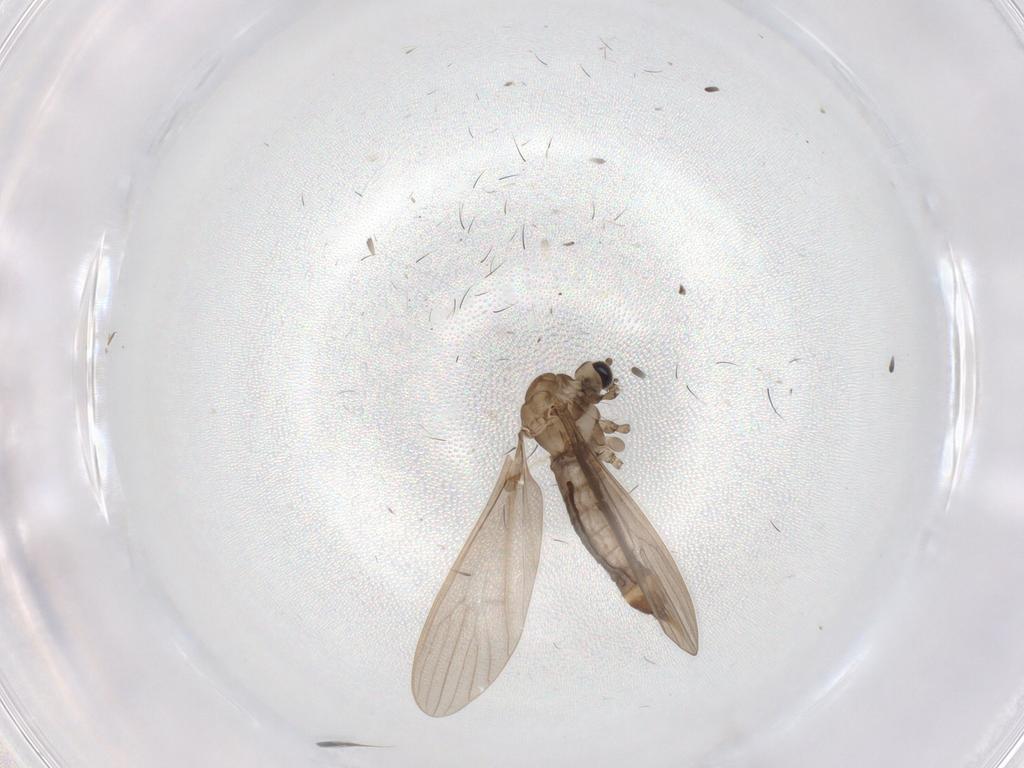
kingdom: Animalia
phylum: Arthropoda
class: Insecta
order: Diptera
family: Phoridae
